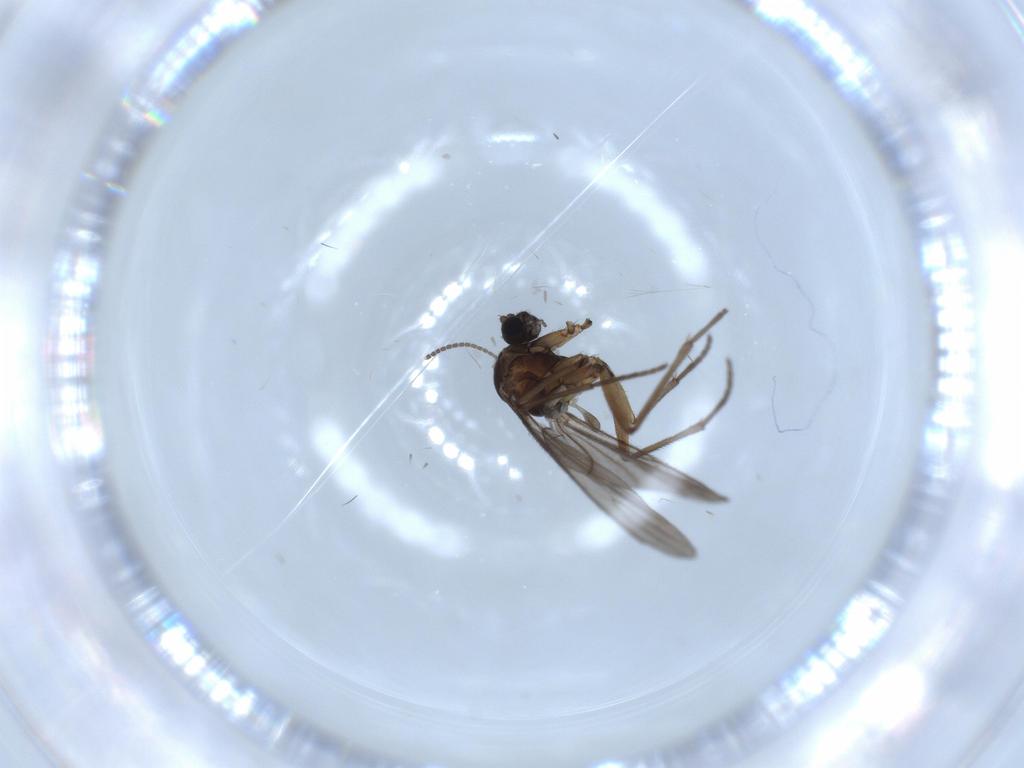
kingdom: Animalia
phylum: Arthropoda
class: Insecta
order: Diptera
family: Sciaridae
